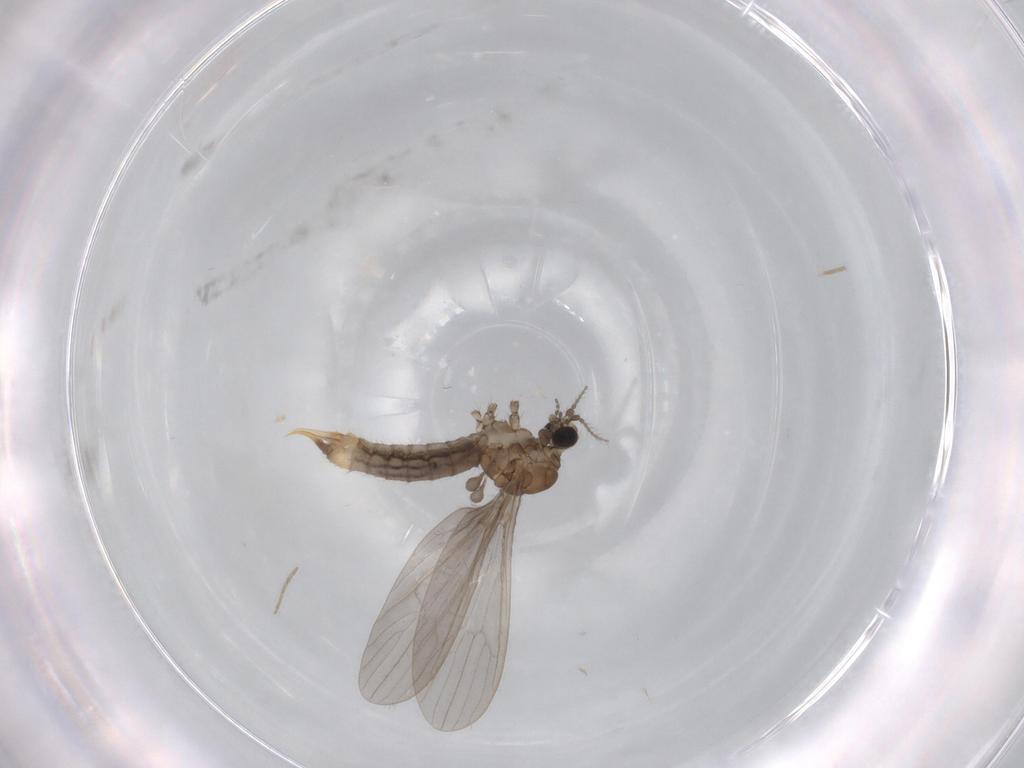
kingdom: Animalia
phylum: Arthropoda
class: Insecta
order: Diptera
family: Limoniidae
